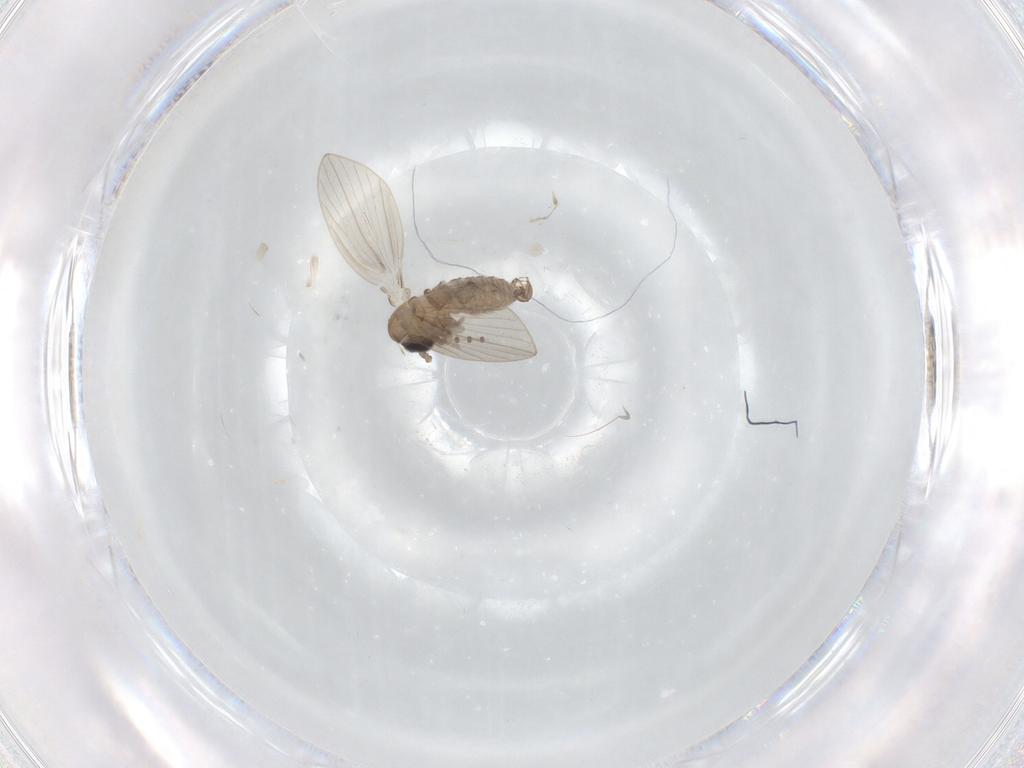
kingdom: Animalia
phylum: Arthropoda
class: Insecta
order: Diptera
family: Psychodidae
